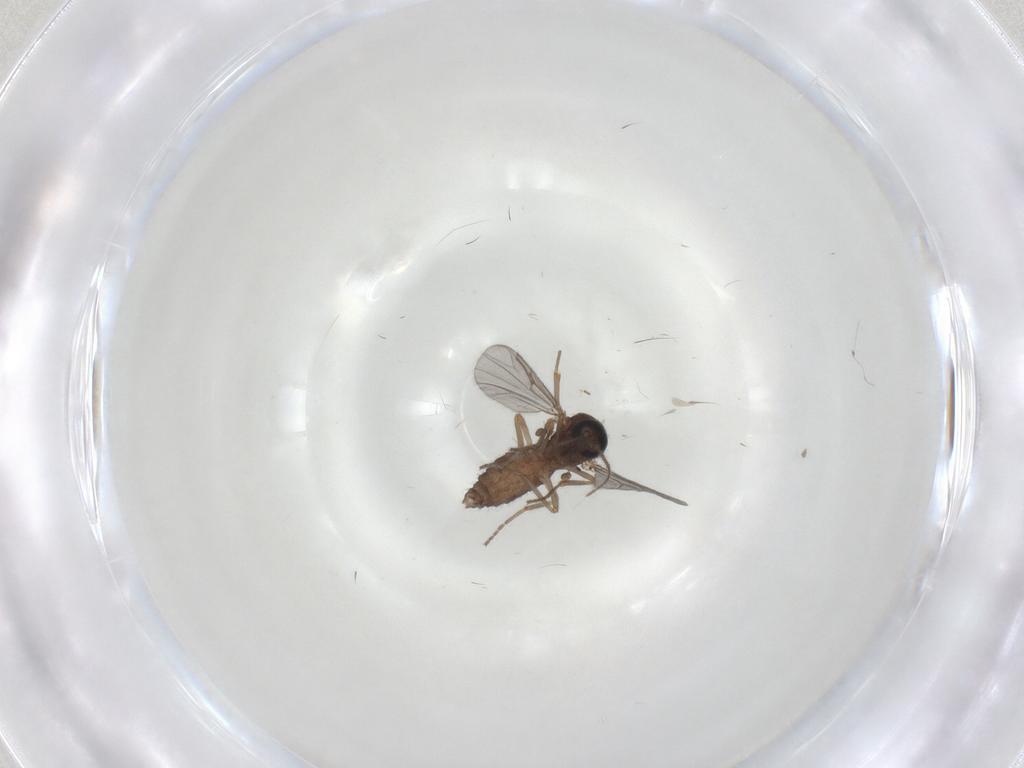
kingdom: Animalia
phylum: Arthropoda
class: Insecta
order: Diptera
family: Ceratopogonidae
